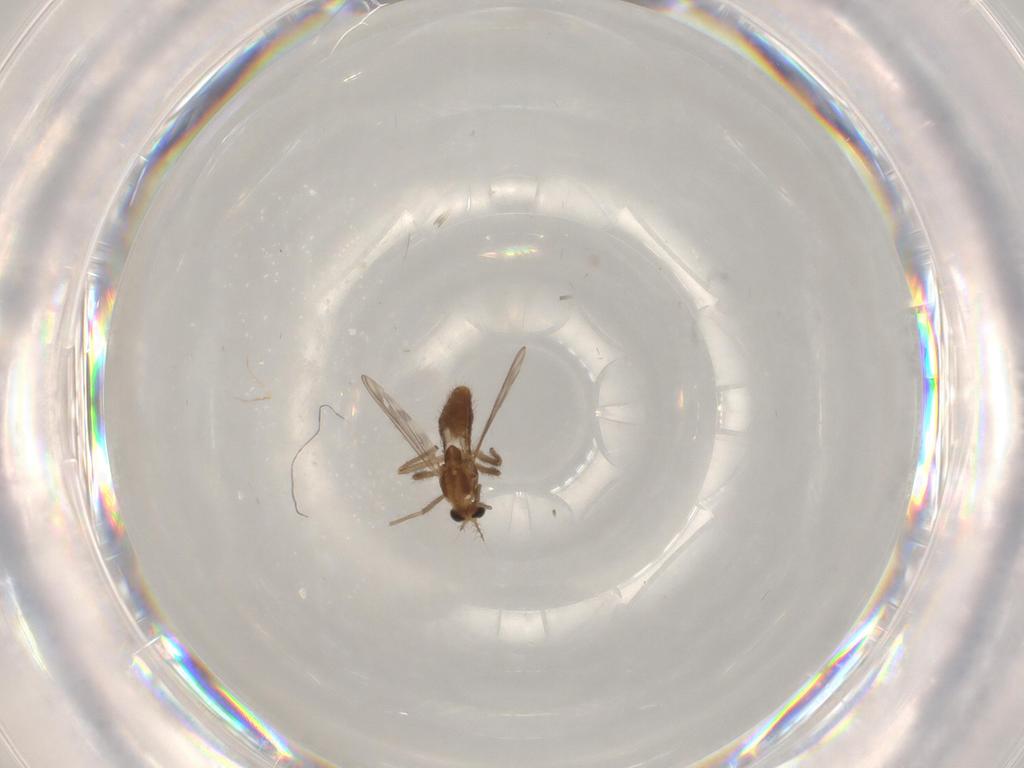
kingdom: Animalia
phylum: Arthropoda
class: Insecta
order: Diptera
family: Chironomidae
